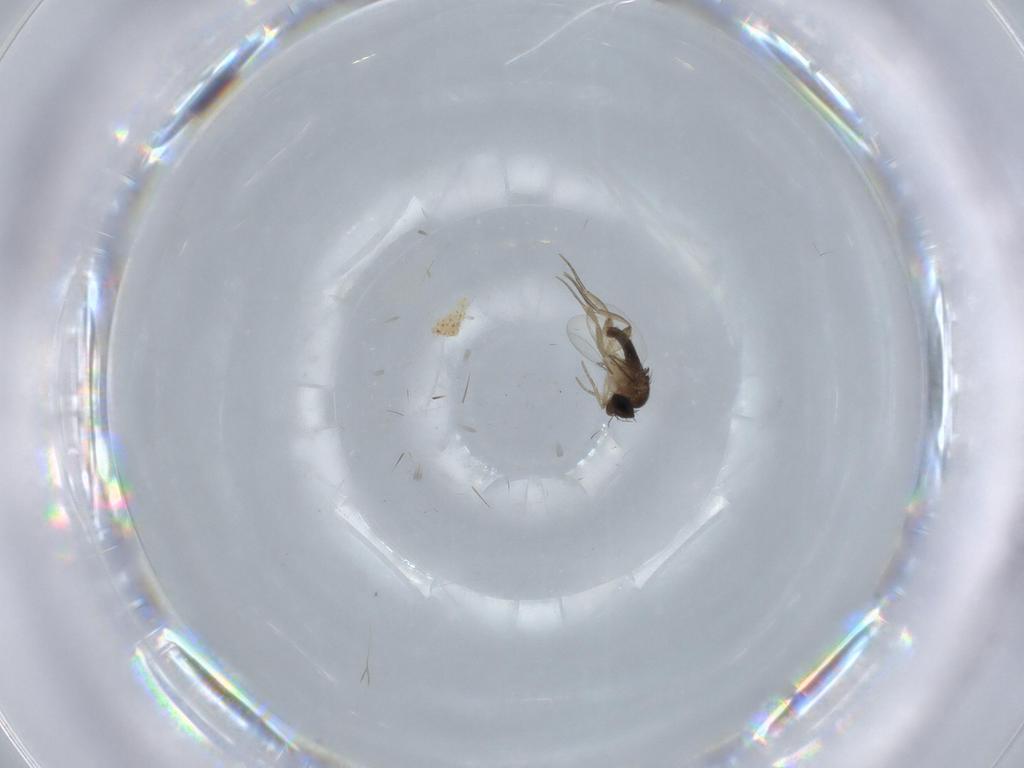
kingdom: Animalia
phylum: Arthropoda
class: Insecta
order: Diptera
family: Phoridae
